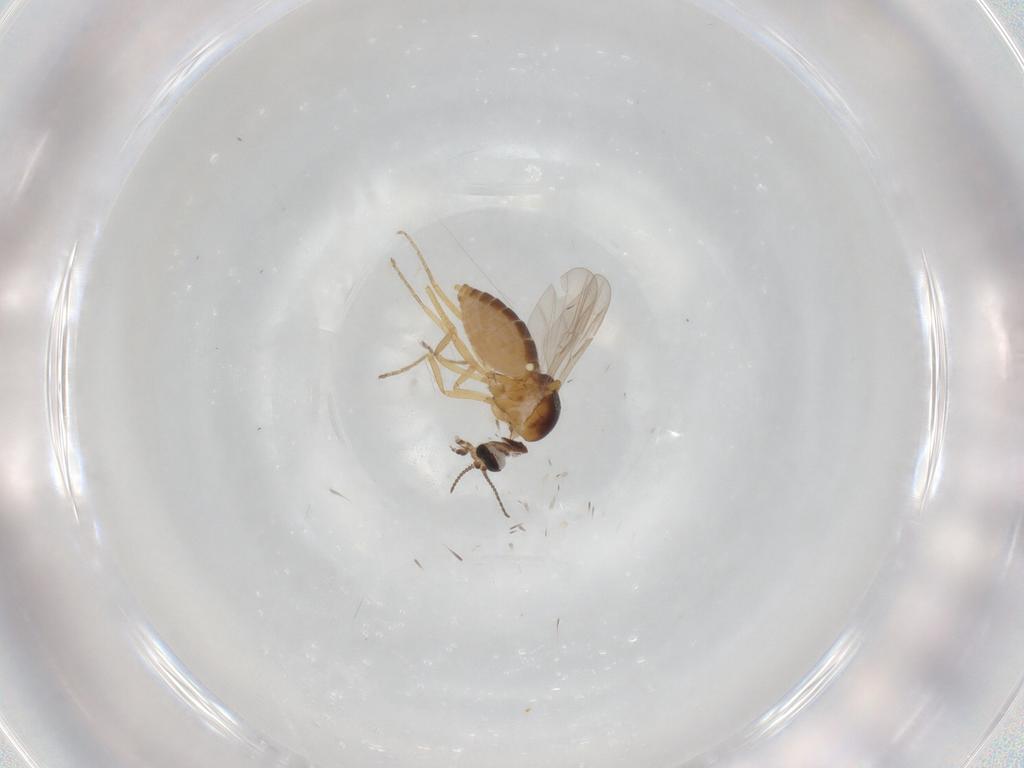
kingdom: Animalia
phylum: Arthropoda
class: Insecta
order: Diptera
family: Ceratopogonidae
